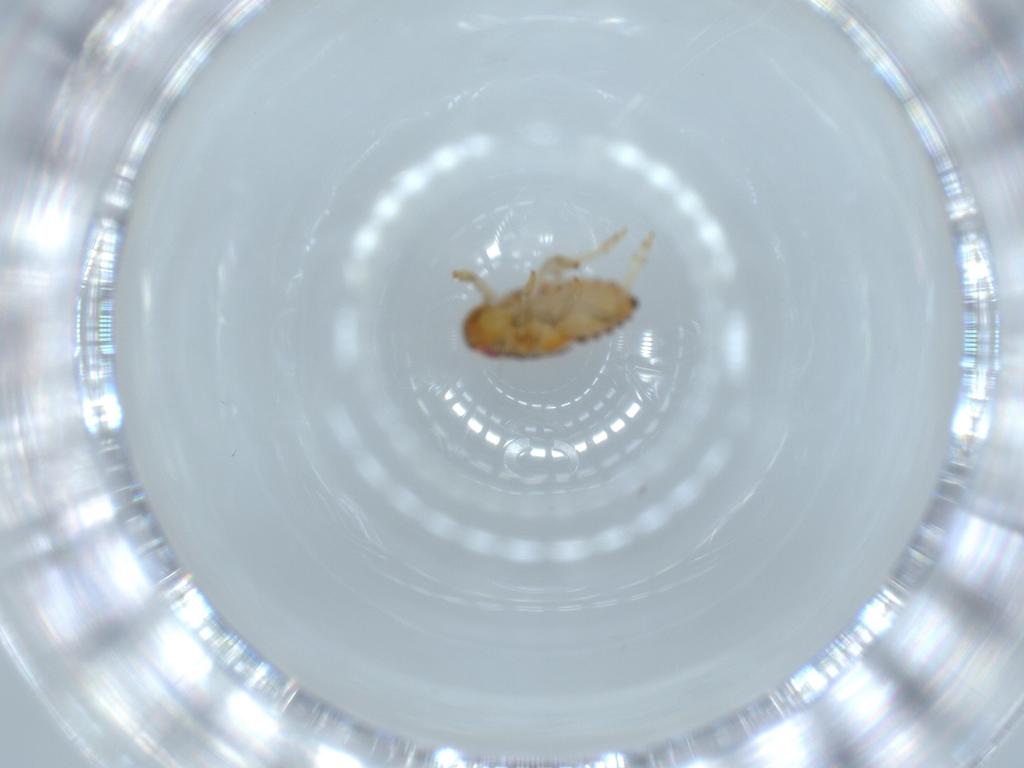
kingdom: Animalia
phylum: Arthropoda
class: Insecta
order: Hemiptera
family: Issidae
